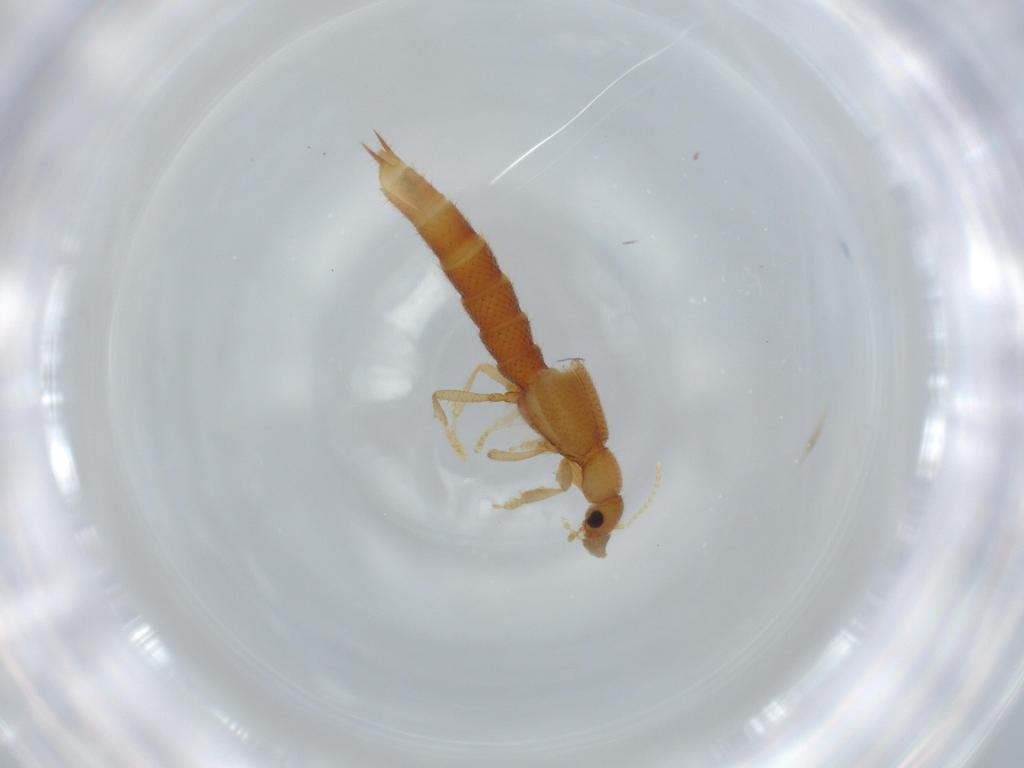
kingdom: Animalia
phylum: Arthropoda
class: Insecta
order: Coleoptera
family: Staphylinidae
